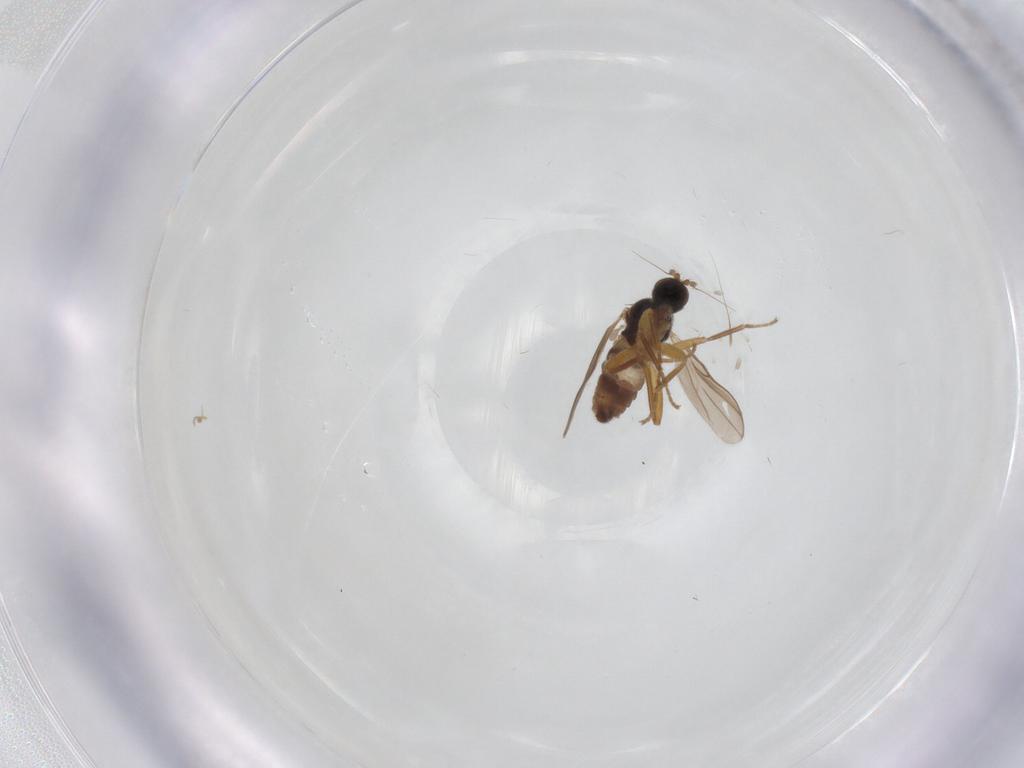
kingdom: Animalia
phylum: Arthropoda
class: Insecta
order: Diptera
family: Hybotidae
